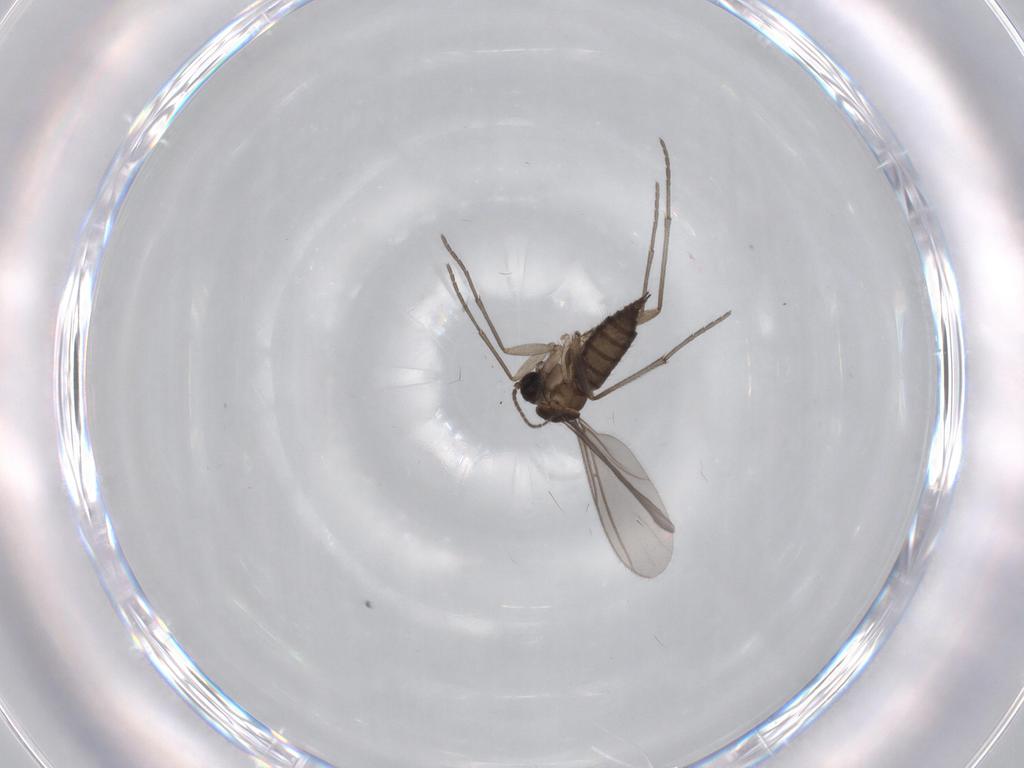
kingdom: Animalia
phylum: Arthropoda
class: Insecta
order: Diptera
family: Sciaridae
